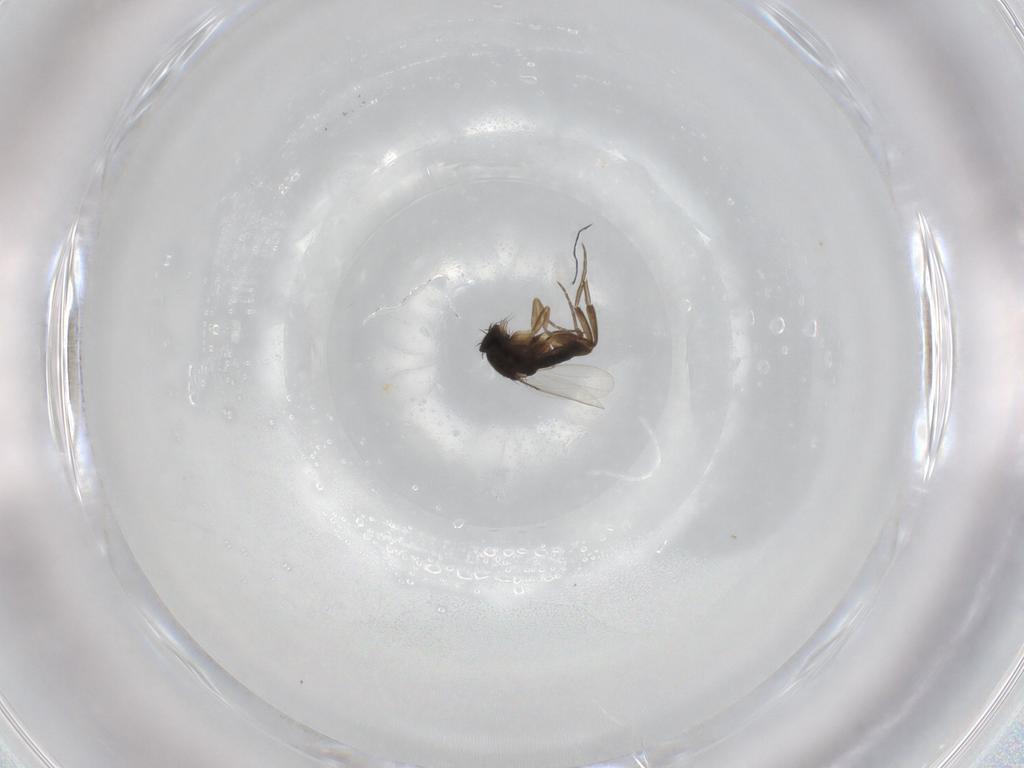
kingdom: Animalia
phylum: Arthropoda
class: Insecta
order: Diptera
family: Phoridae
